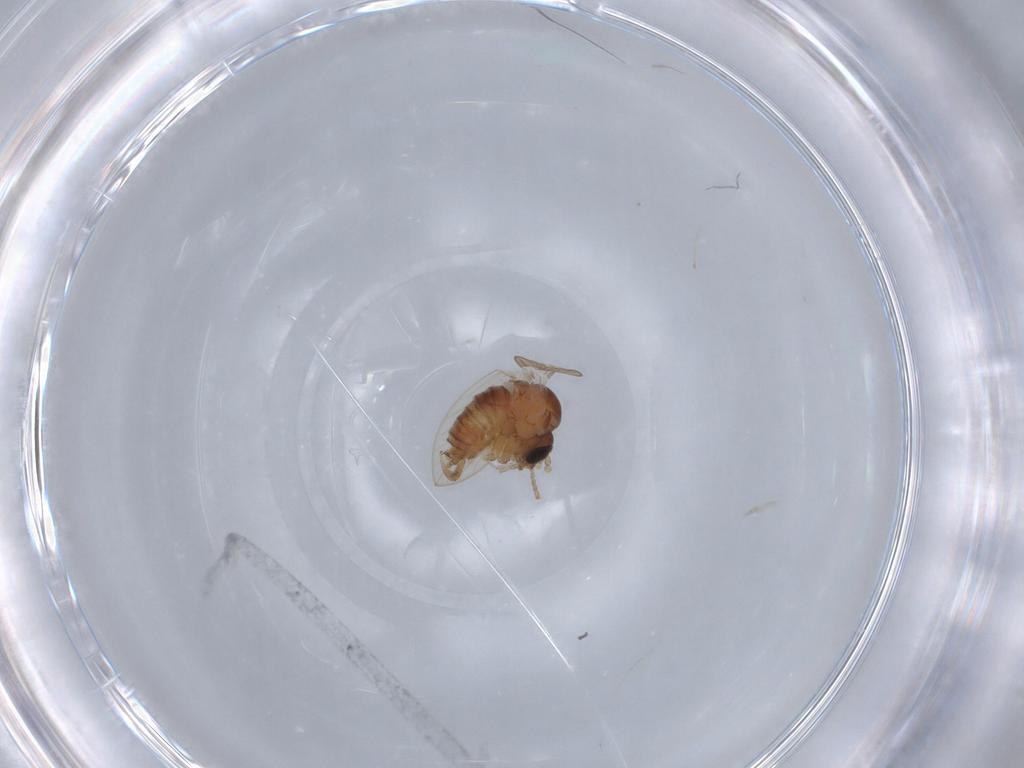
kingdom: Animalia
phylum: Arthropoda
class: Insecta
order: Diptera
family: Psychodidae
